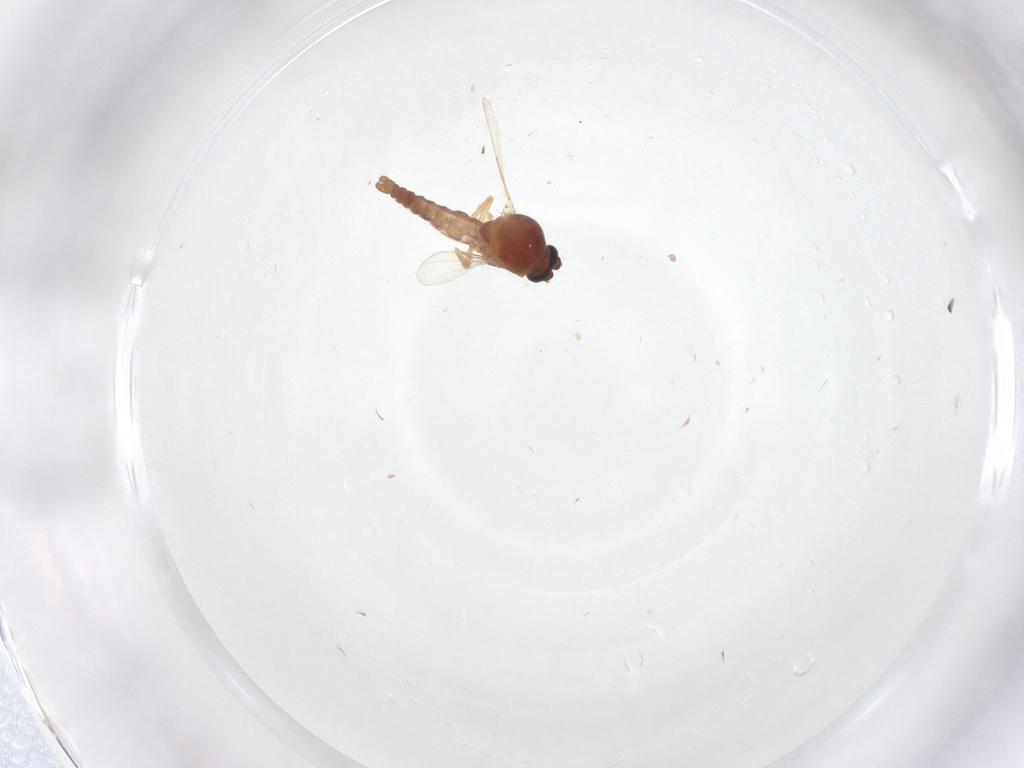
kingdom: Animalia
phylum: Arthropoda
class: Insecta
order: Diptera
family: Ceratopogonidae
